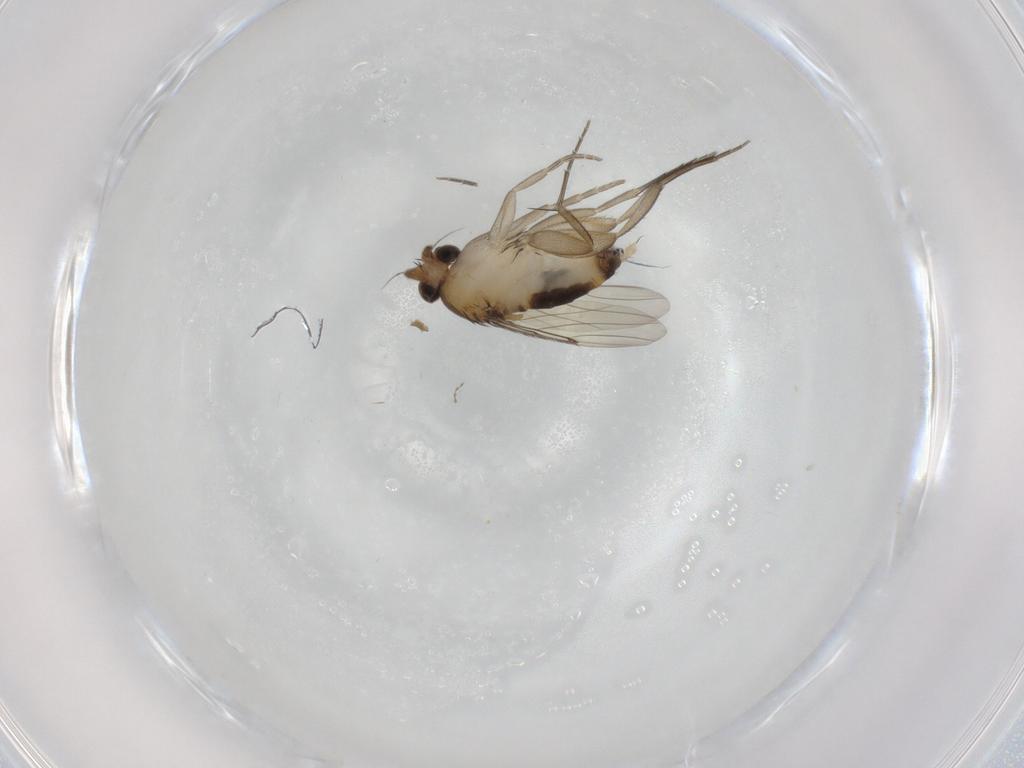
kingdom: Animalia
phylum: Arthropoda
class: Insecta
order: Diptera
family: Phoridae
